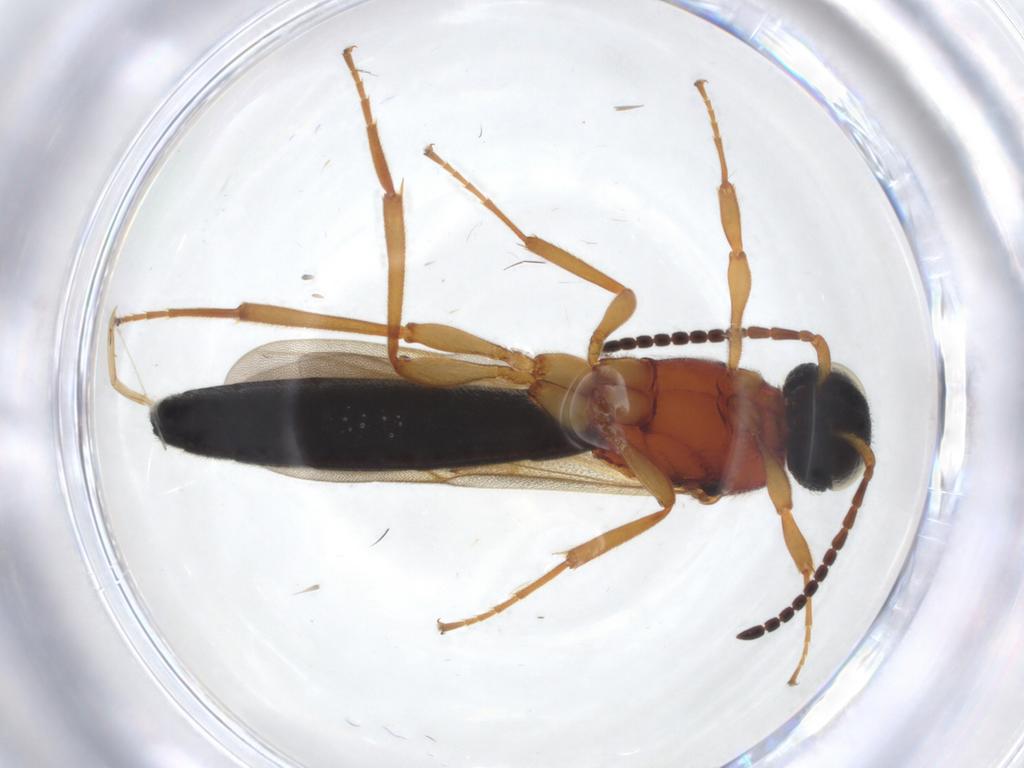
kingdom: Animalia
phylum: Arthropoda
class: Insecta
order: Hymenoptera
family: Scelionidae
